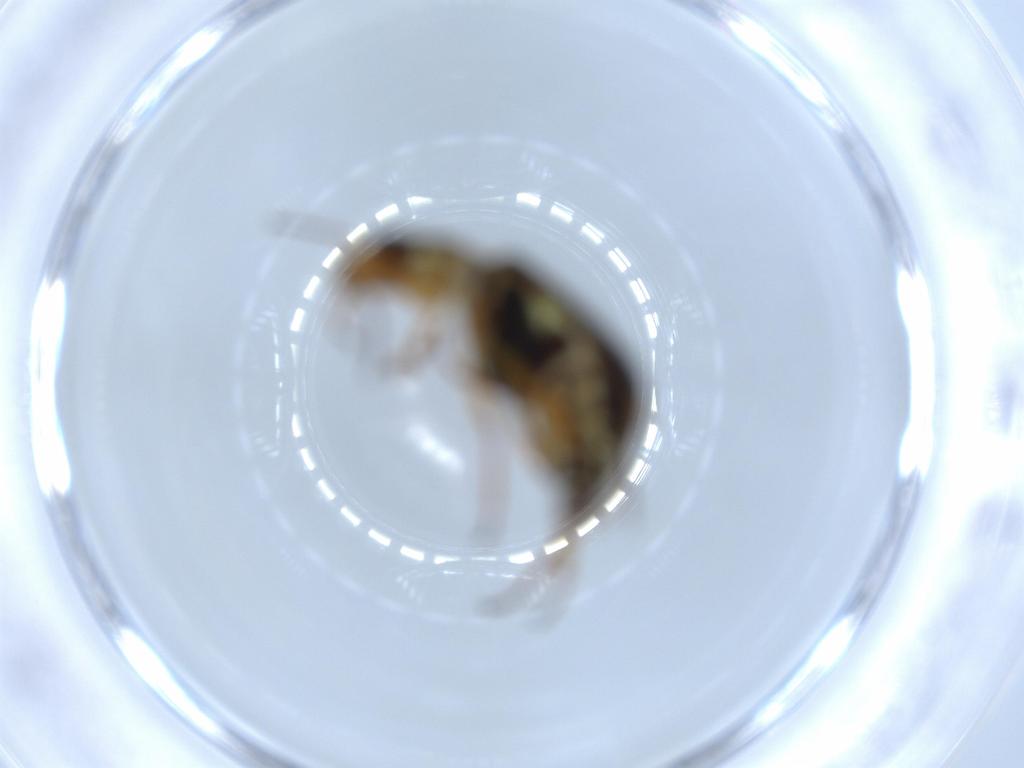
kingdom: Animalia
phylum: Arthropoda
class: Insecta
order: Coleoptera
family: Melyridae
